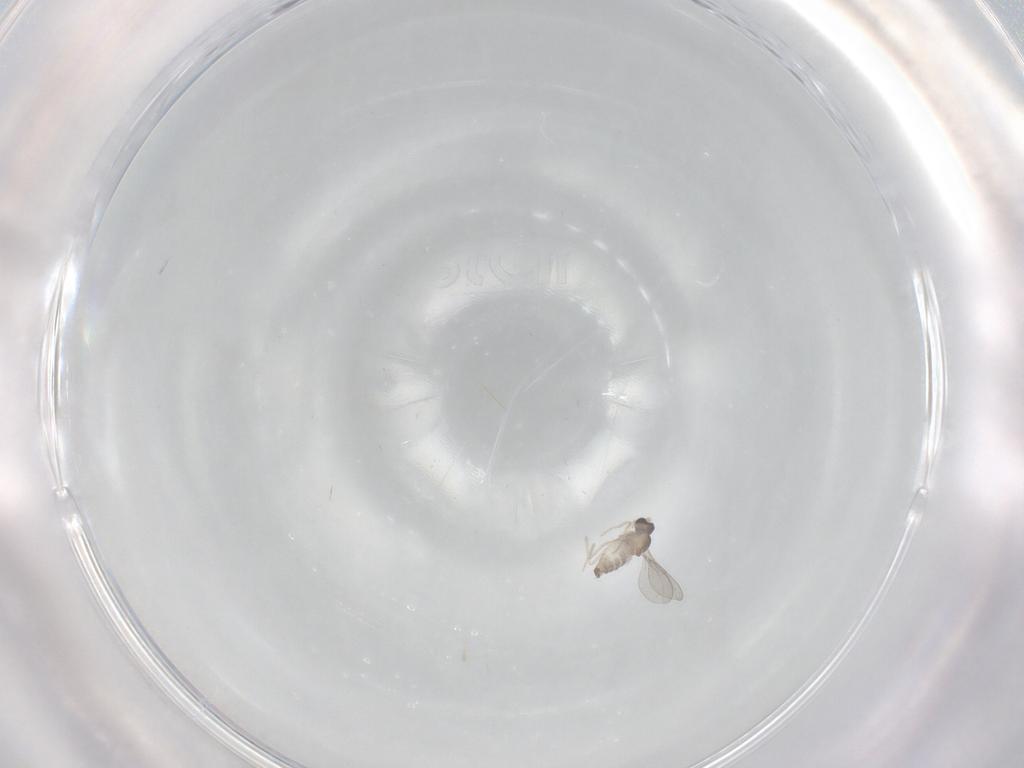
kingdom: Animalia
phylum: Arthropoda
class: Insecta
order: Diptera
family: Cecidomyiidae
